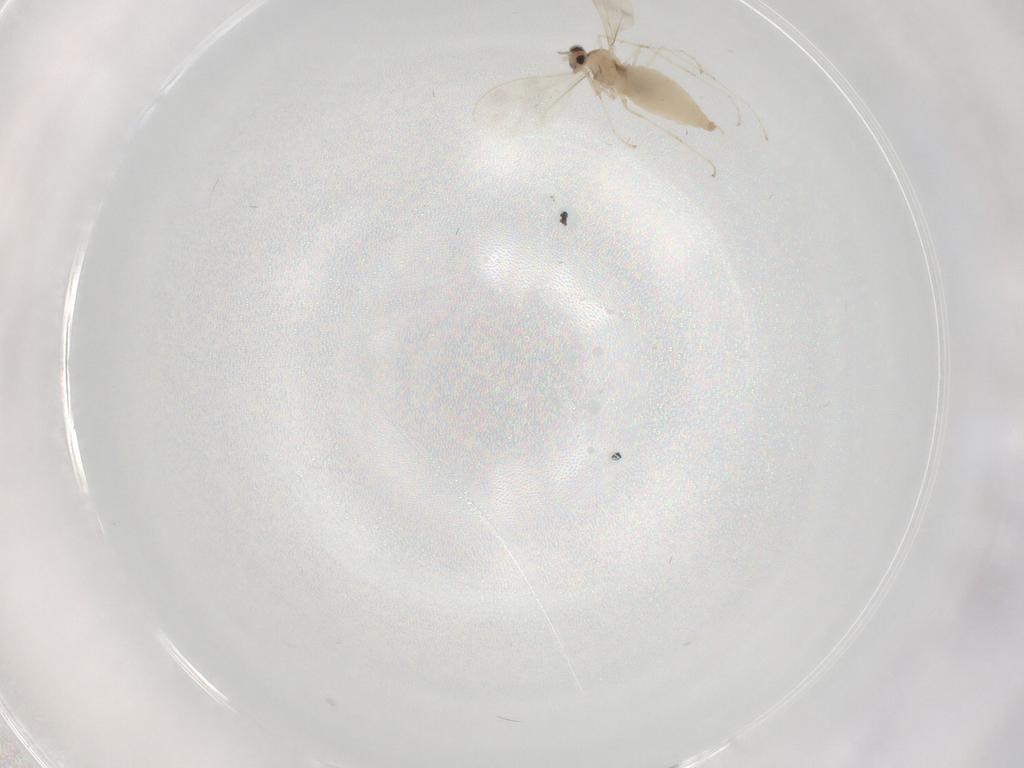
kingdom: Animalia
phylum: Arthropoda
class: Insecta
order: Diptera
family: Cecidomyiidae
